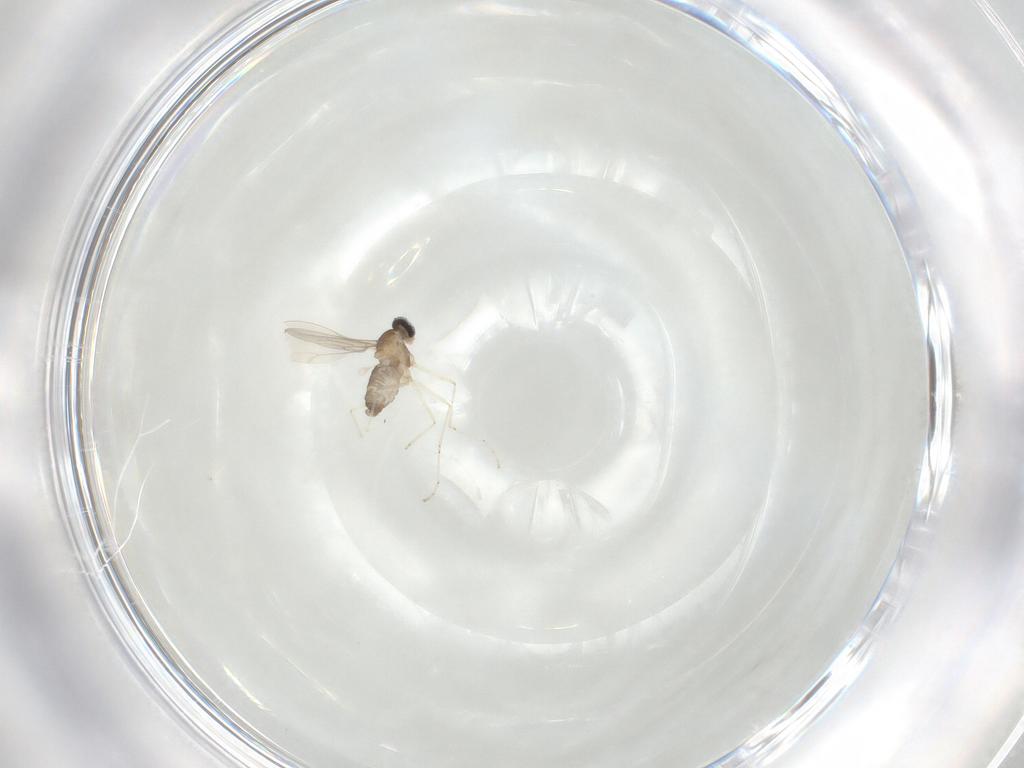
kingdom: Animalia
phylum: Arthropoda
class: Insecta
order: Diptera
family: Cecidomyiidae
